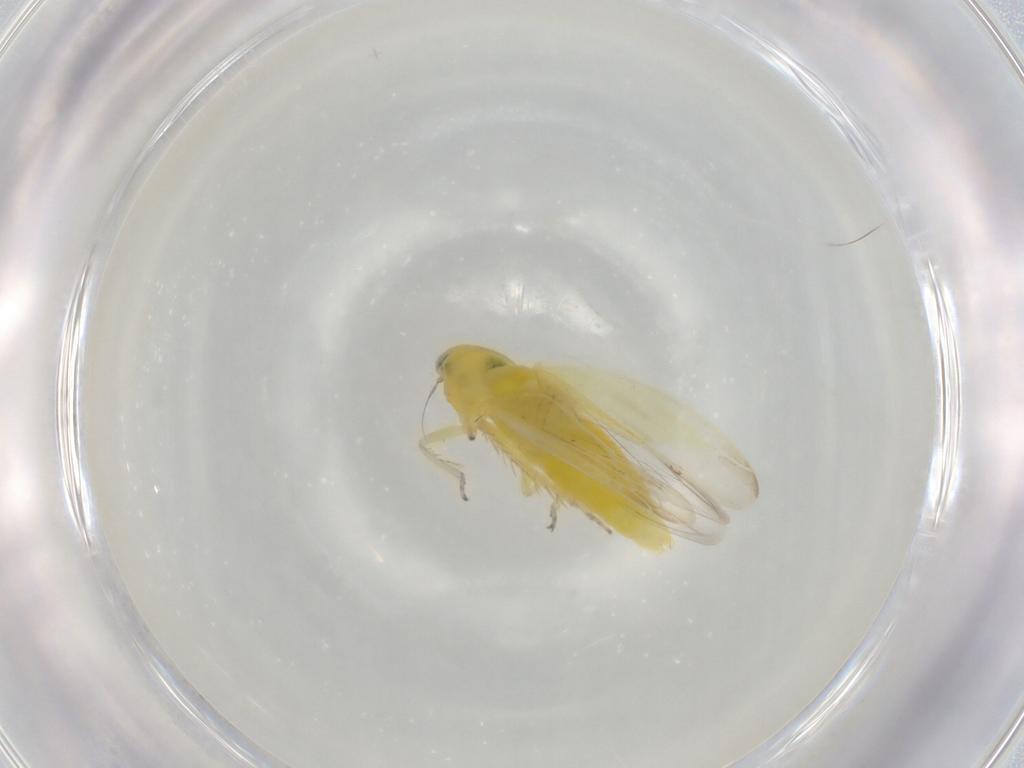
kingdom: Animalia
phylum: Arthropoda
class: Insecta
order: Hemiptera
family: Cicadellidae
